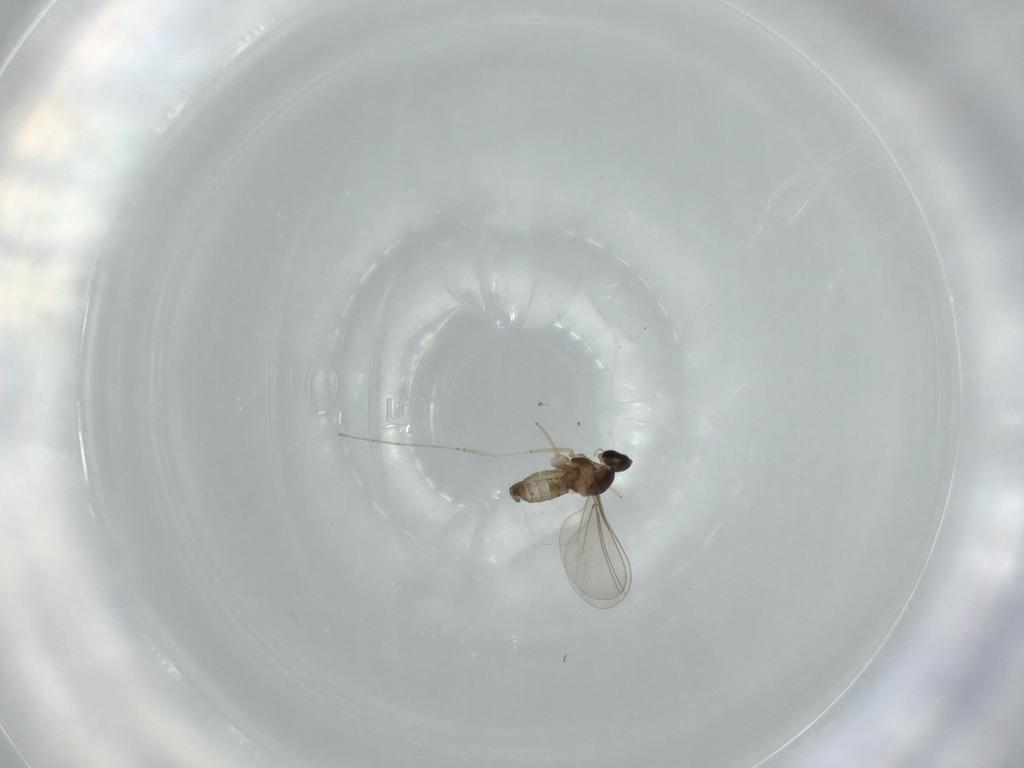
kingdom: Animalia
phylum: Arthropoda
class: Insecta
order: Diptera
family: Cecidomyiidae
